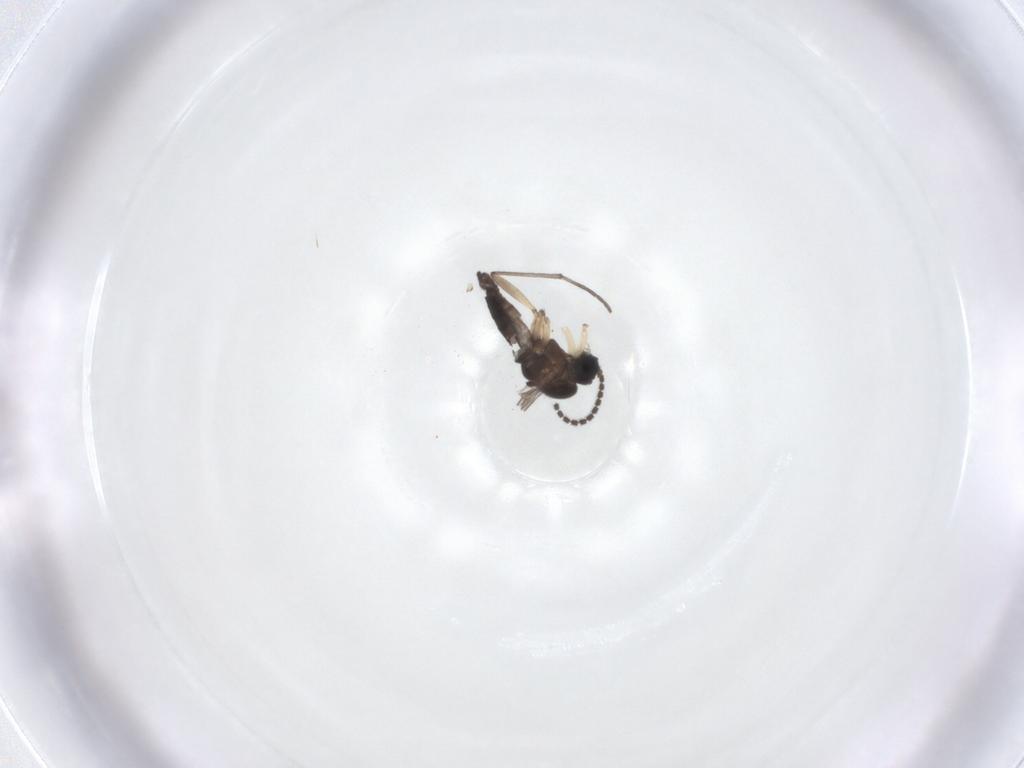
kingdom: Animalia
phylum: Arthropoda
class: Insecta
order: Diptera
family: Sciaridae
